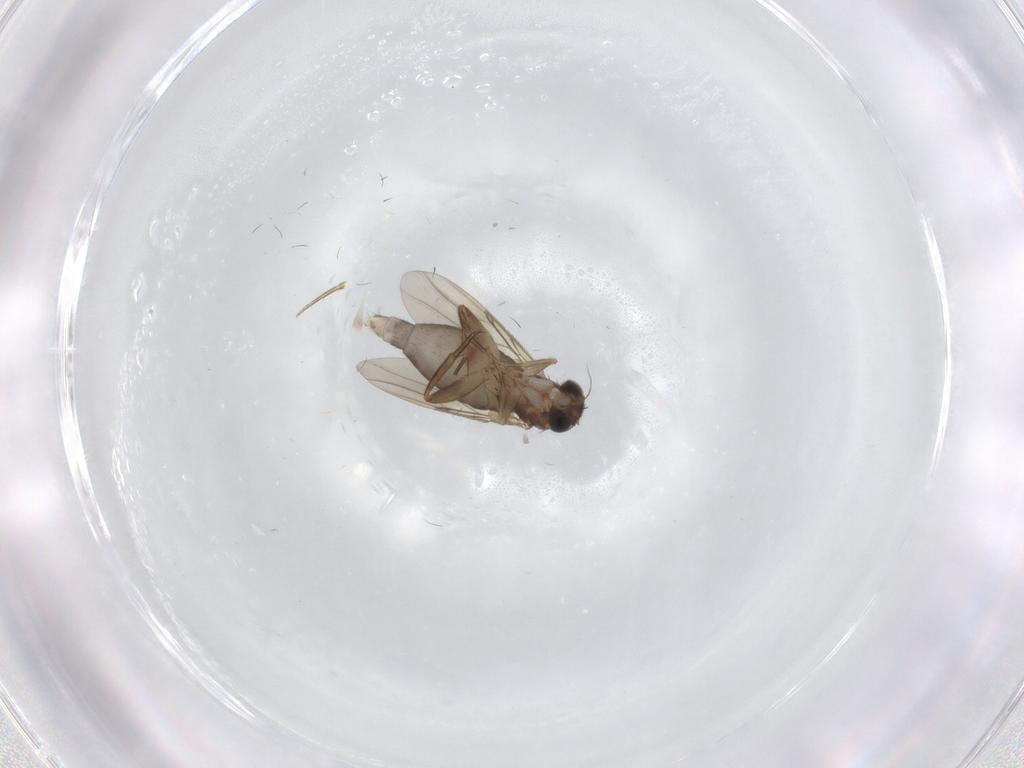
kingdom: Animalia
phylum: Arthropoda
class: Insecta
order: Diptera
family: Phoridae
